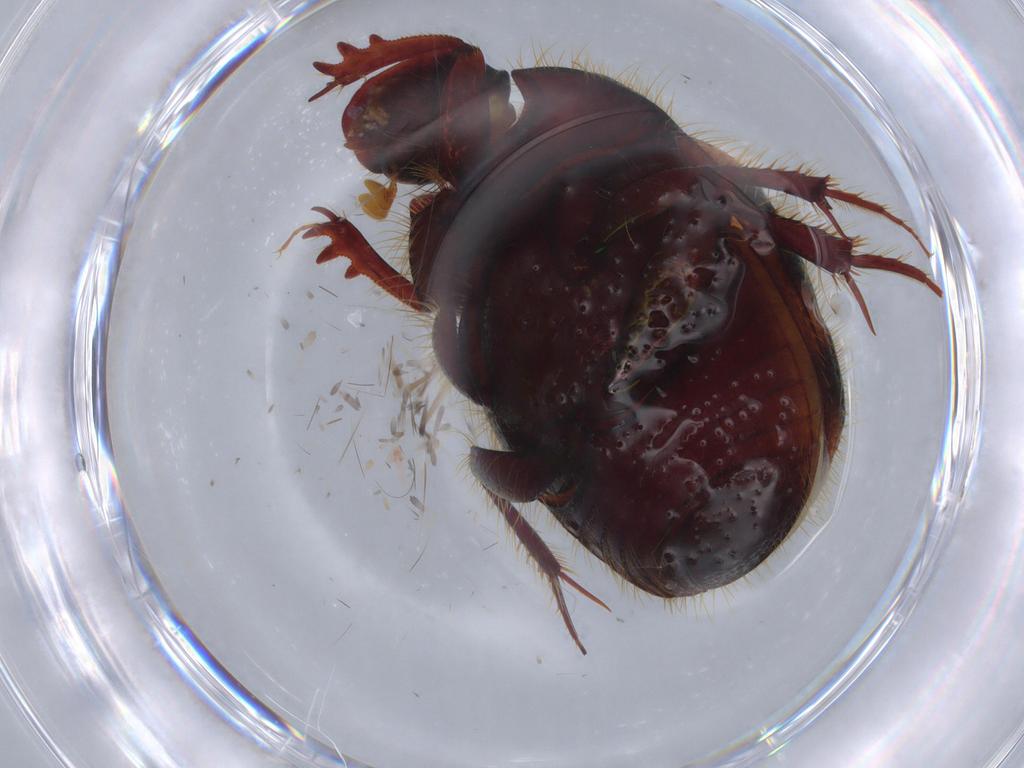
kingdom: Animalia
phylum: Arthropoda
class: Insecta
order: Coleoptera
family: Scarabaeidae
